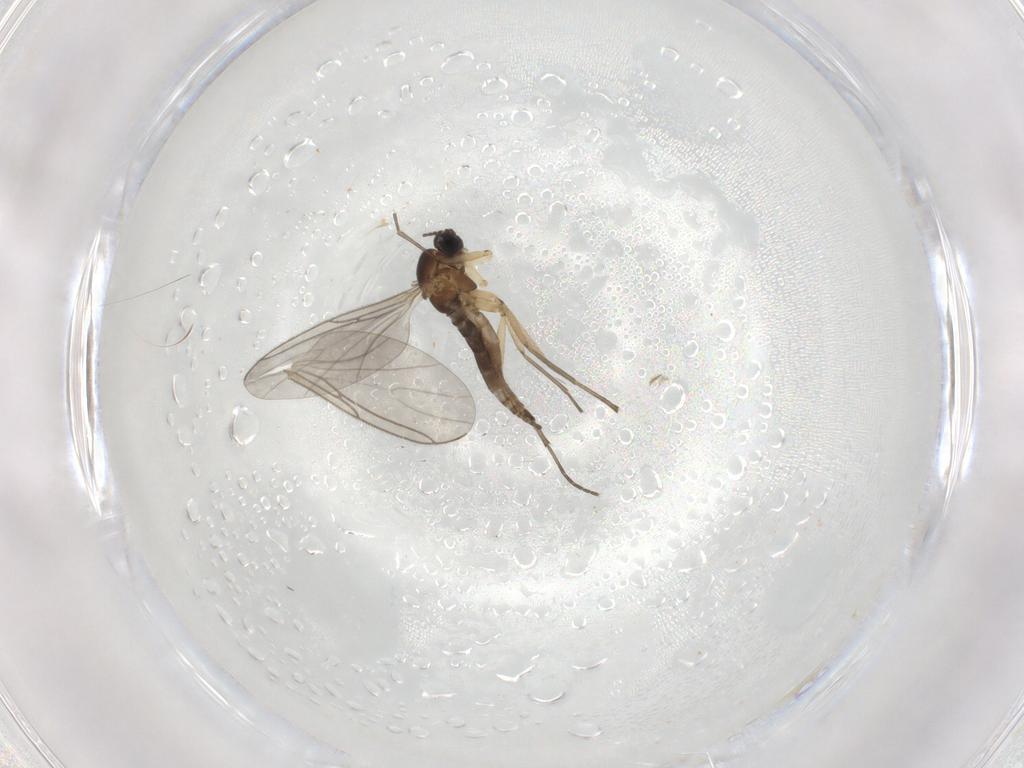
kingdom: Animalia
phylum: Arthropoda
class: Insecta
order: Diptera
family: Sciaridae
